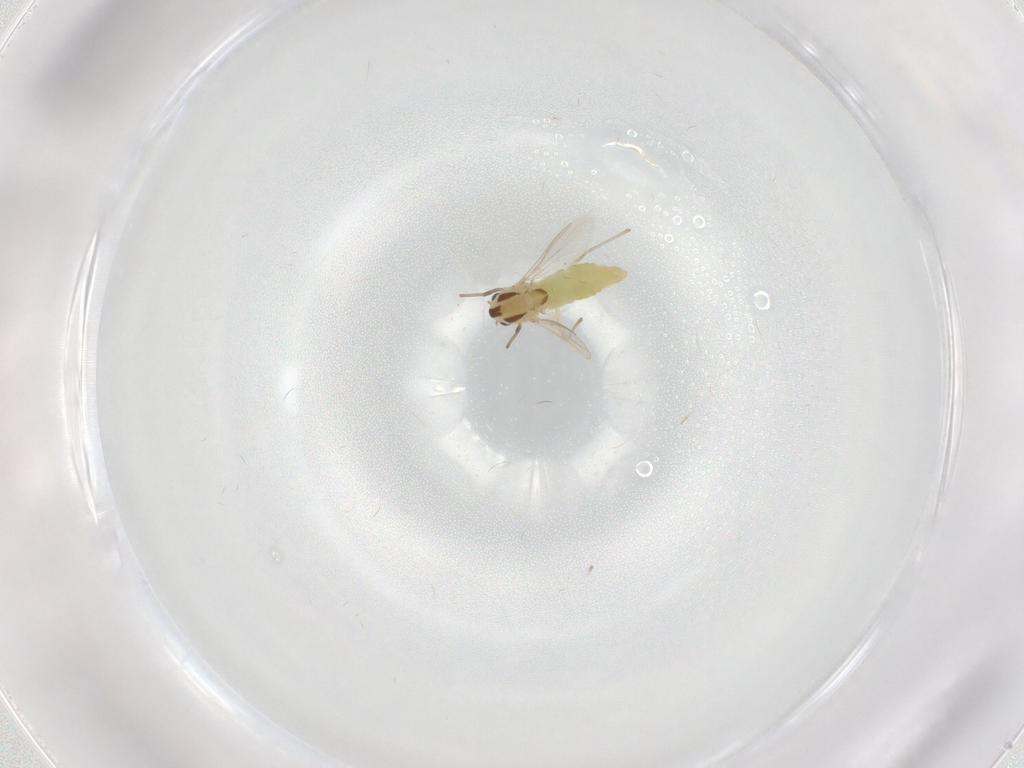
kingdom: Animalia
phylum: Arthropoda
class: Insecta
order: Diptera
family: Chironomidae
